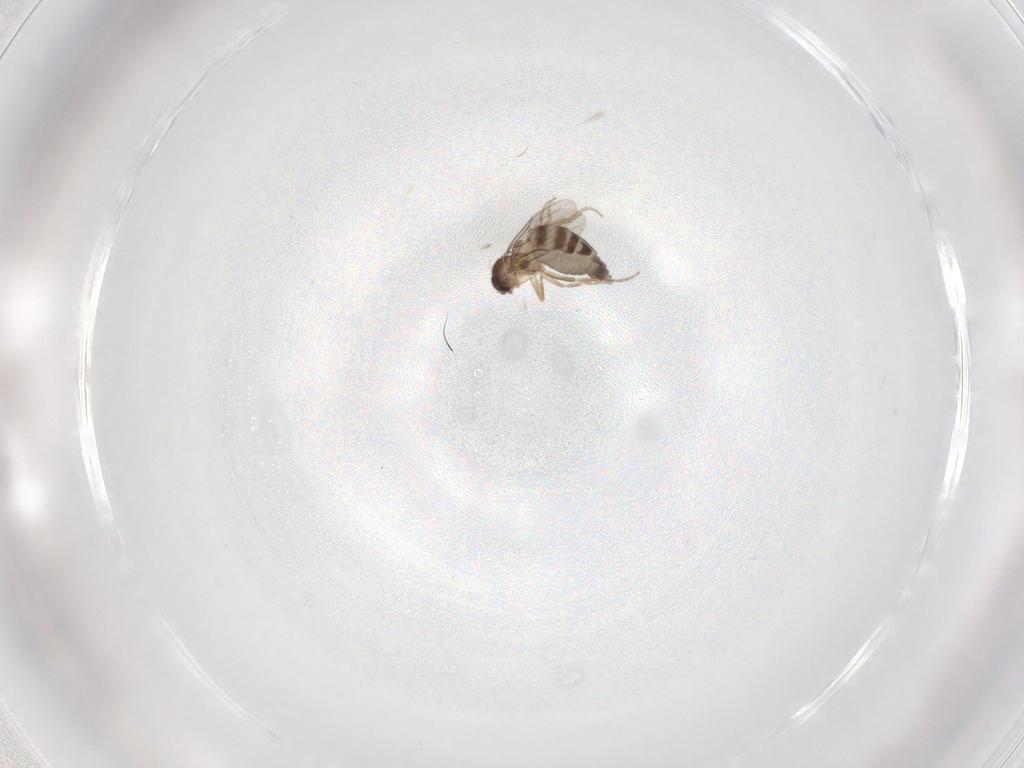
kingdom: Animalia
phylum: Arthropoda
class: Insecta
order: Diptera
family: Phoridae
